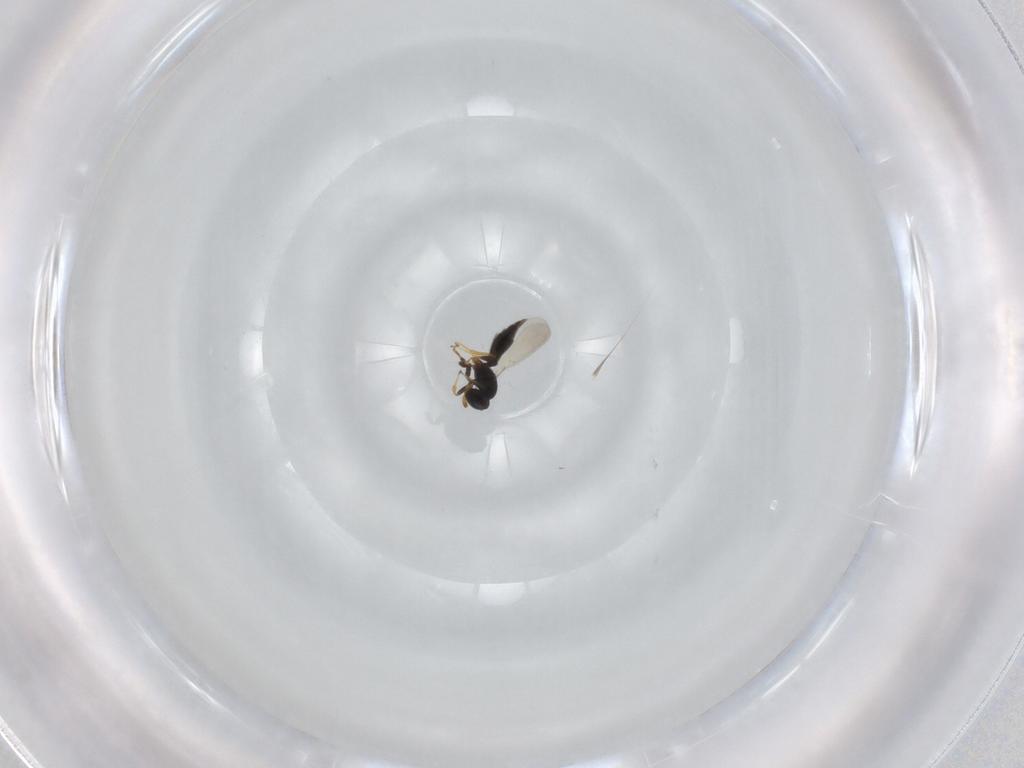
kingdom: Animalia
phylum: Arthropoda
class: Insecta
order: Hymenoptera
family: Platygastridae
